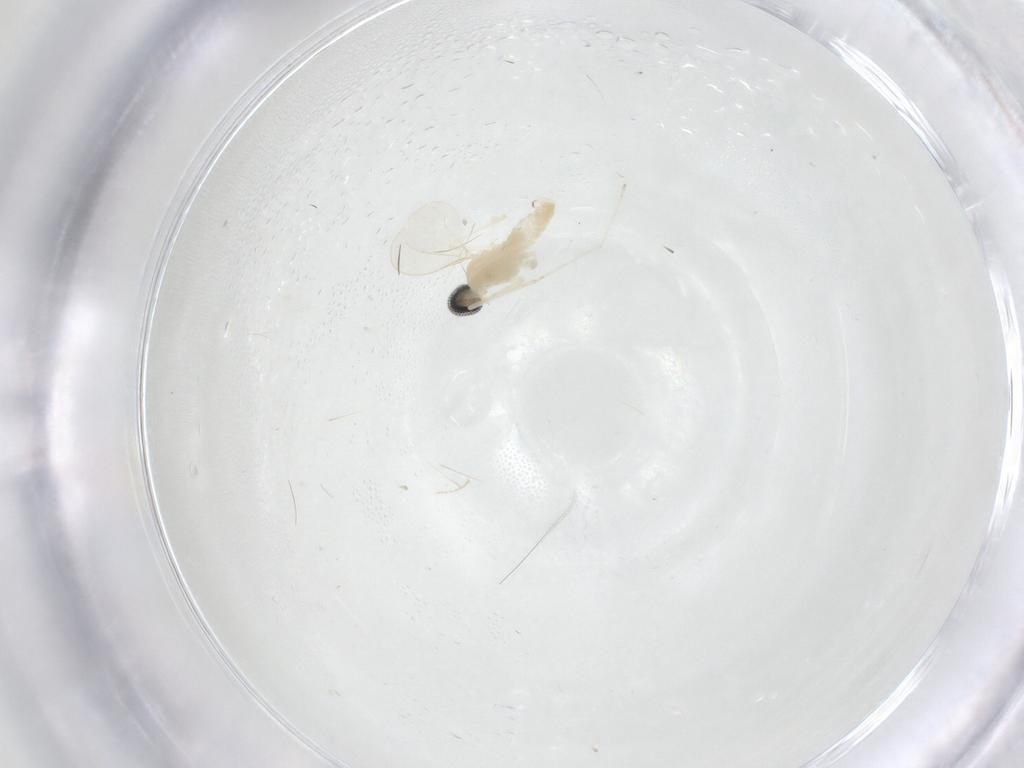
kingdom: Animalia
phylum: Arthropoda
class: Insecta
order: Diptera
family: Cecidomyiidae
